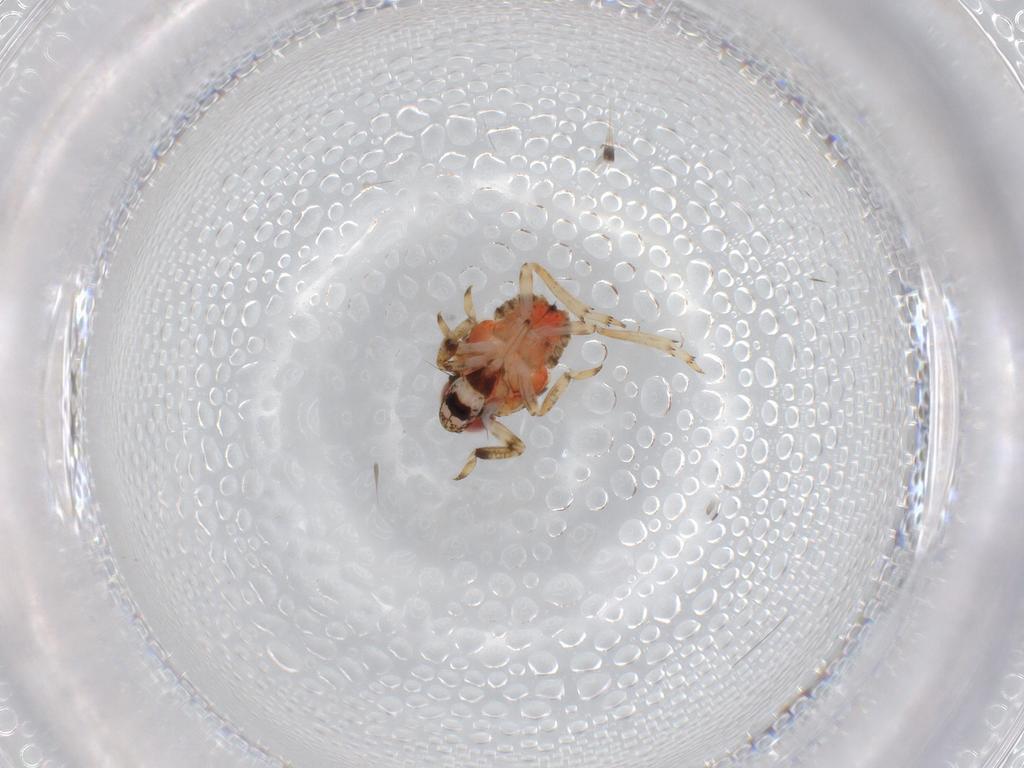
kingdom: Animalia
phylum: Arthropoda
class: Insecta
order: Hemiptera
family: Issidae
